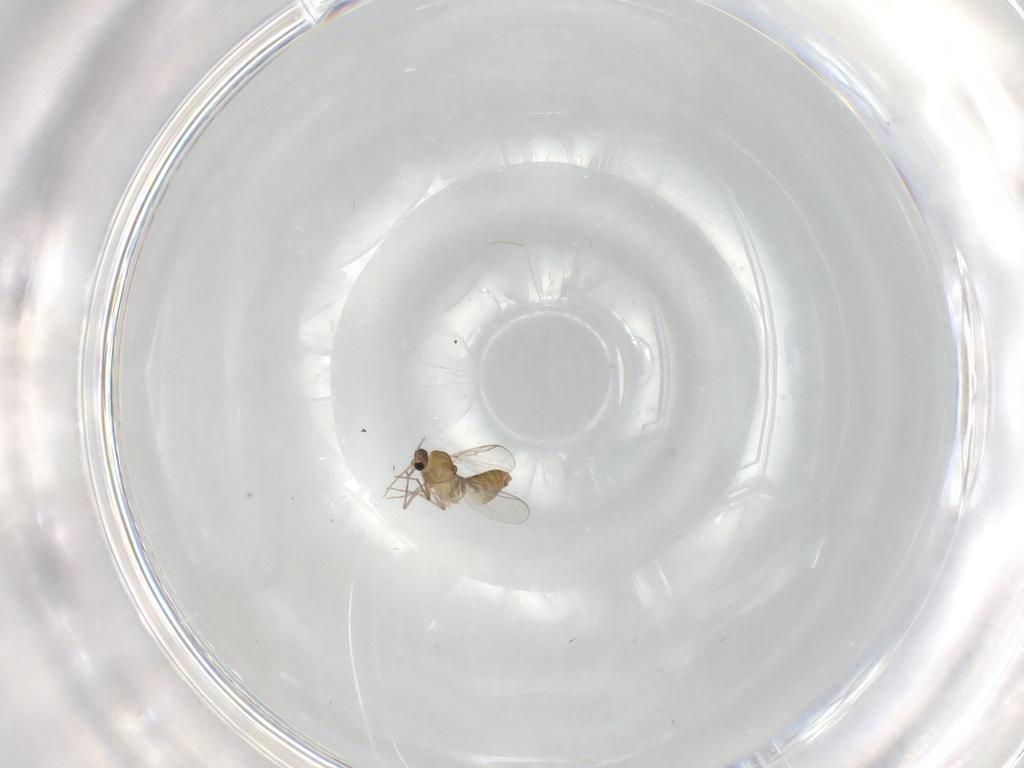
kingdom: Animalia
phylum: Arthropoda
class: Insecta
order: Diptera
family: Chironomidae
